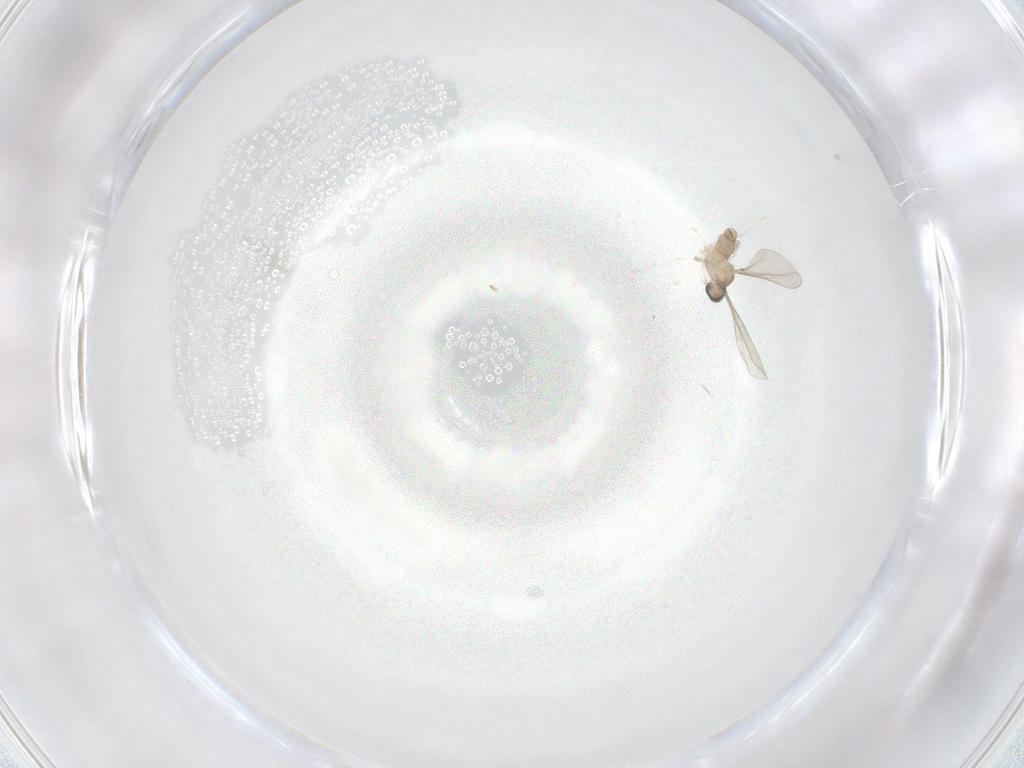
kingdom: Animalia
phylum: Arthropoda
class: Insecta
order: Diptera
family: Cecidomyiidae
